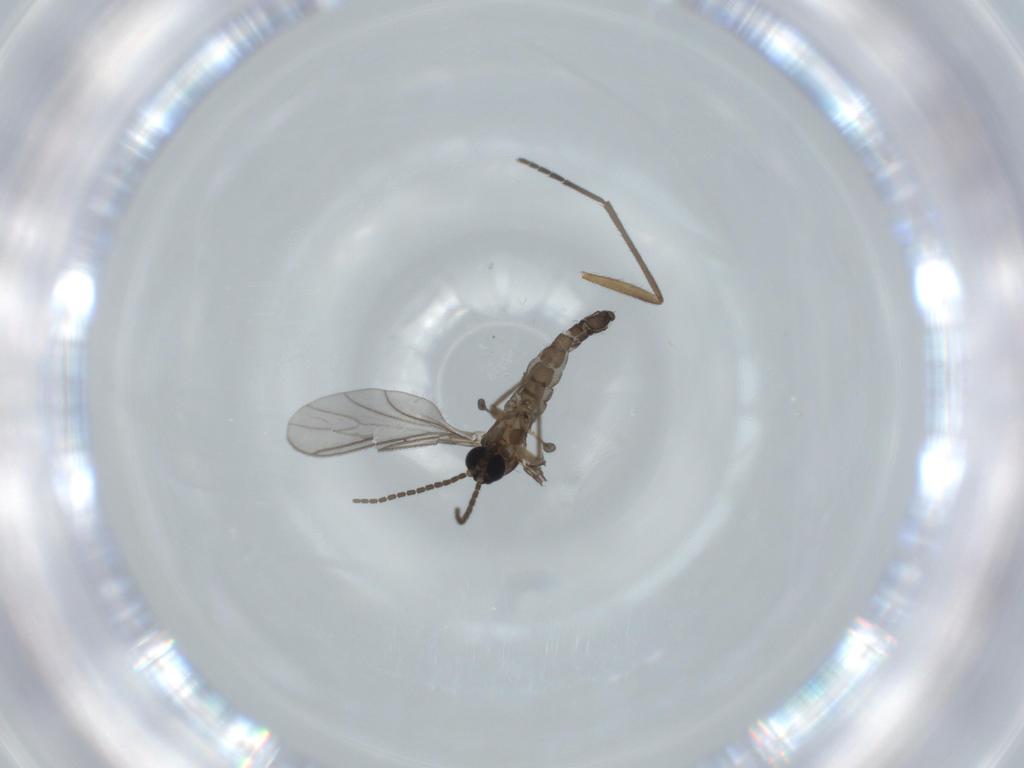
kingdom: Animalia
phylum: Arthropoda
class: Insecta
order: Diptera
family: Sciaridae
